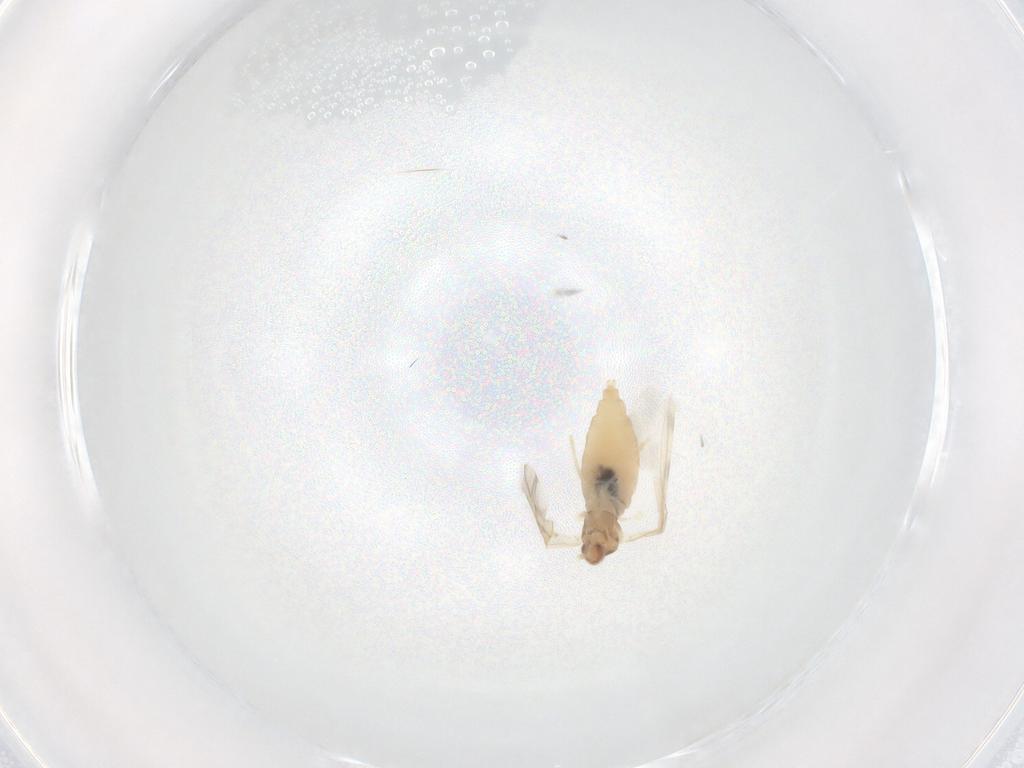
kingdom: Animalia
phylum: Arthropoda
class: Insecta
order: Diptera
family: Cecidomyiidae
